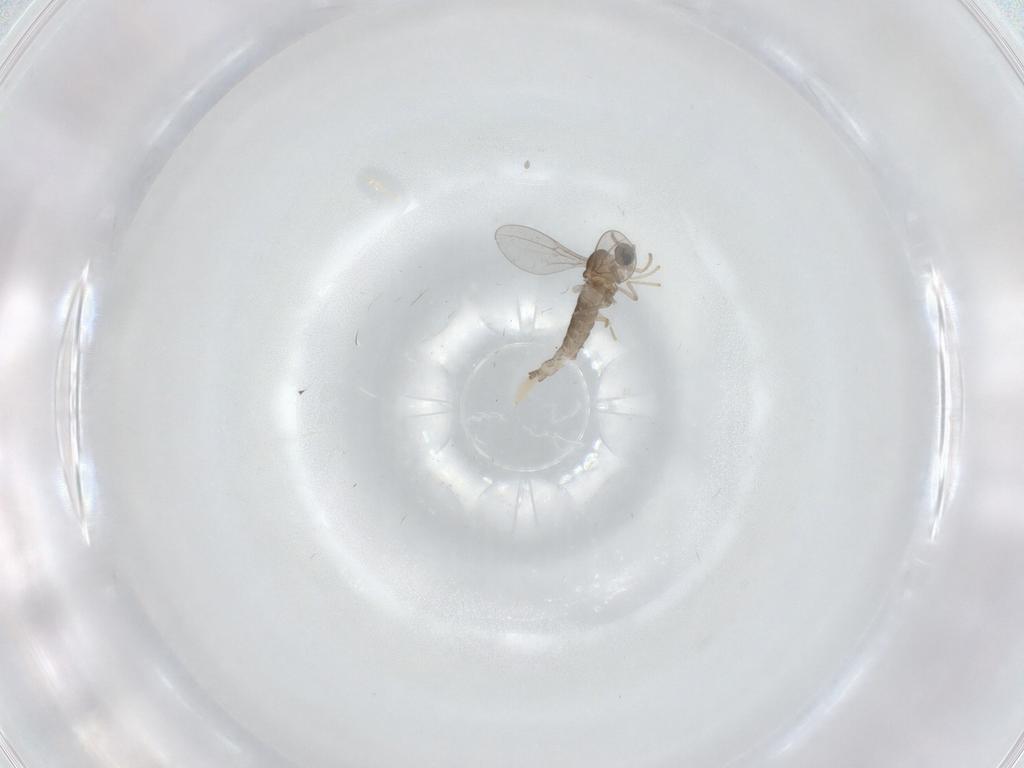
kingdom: Animalia
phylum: Arthropoda
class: Insecta
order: Diptera
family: Cecidomyiidae
